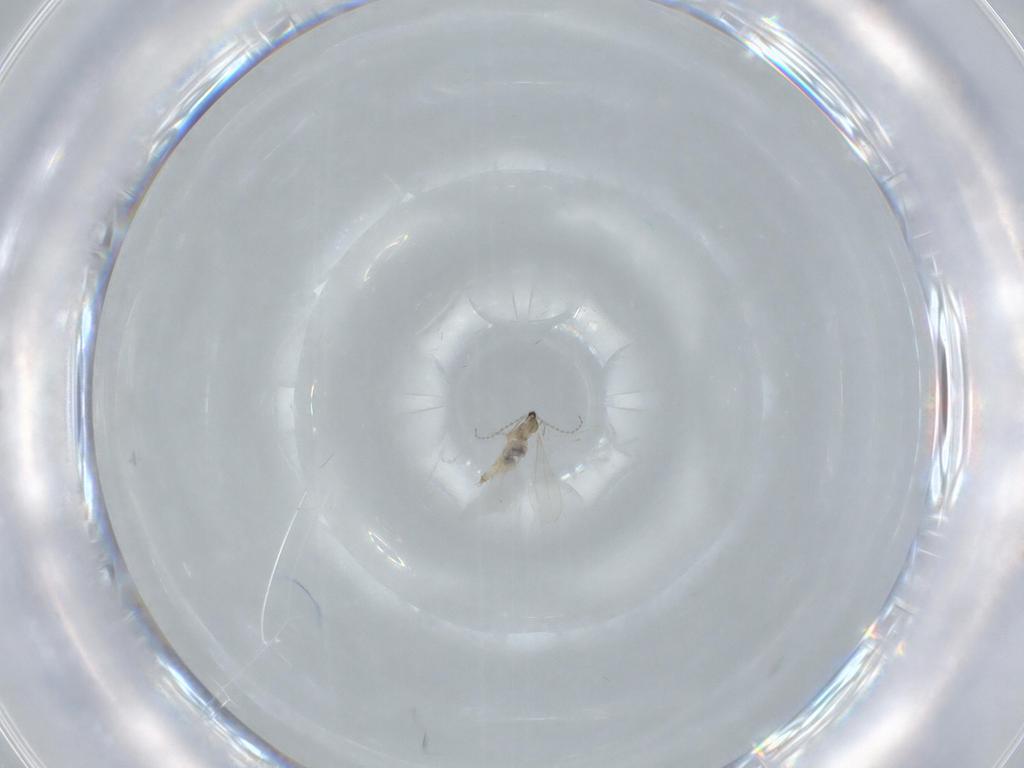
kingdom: Animalia
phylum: Arthropoda
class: Insecta
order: Diptera
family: Cecidomyiidae
